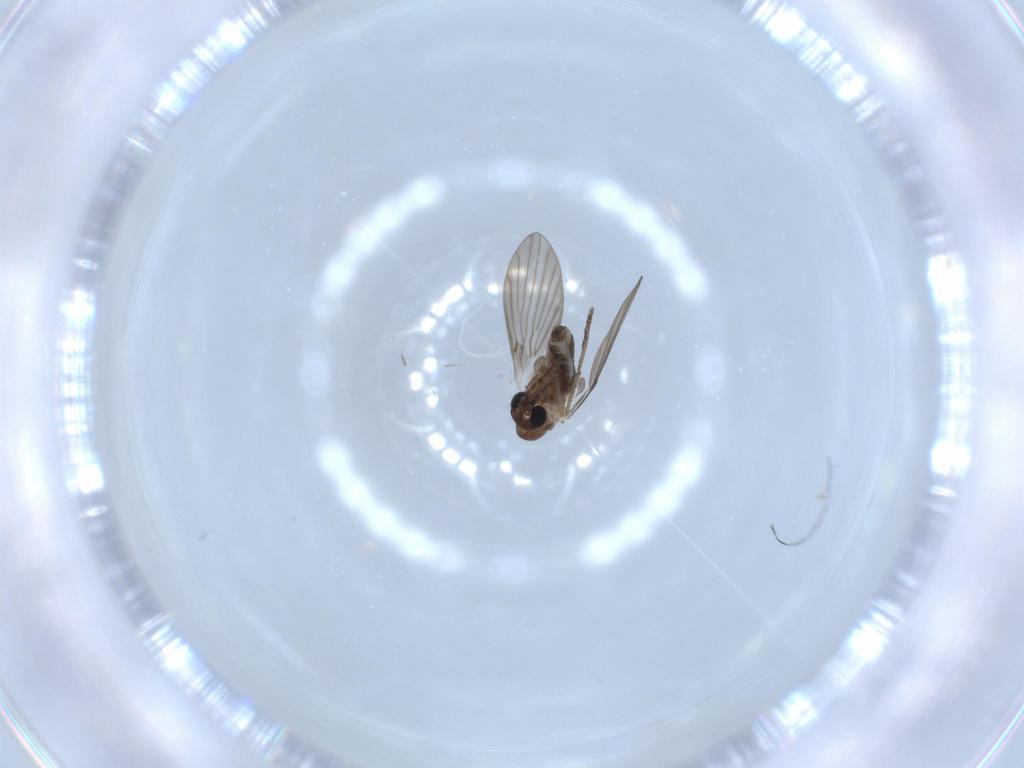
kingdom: Animalia
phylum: Arthropoda
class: Insecta
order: Diptera
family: Psychodidae
